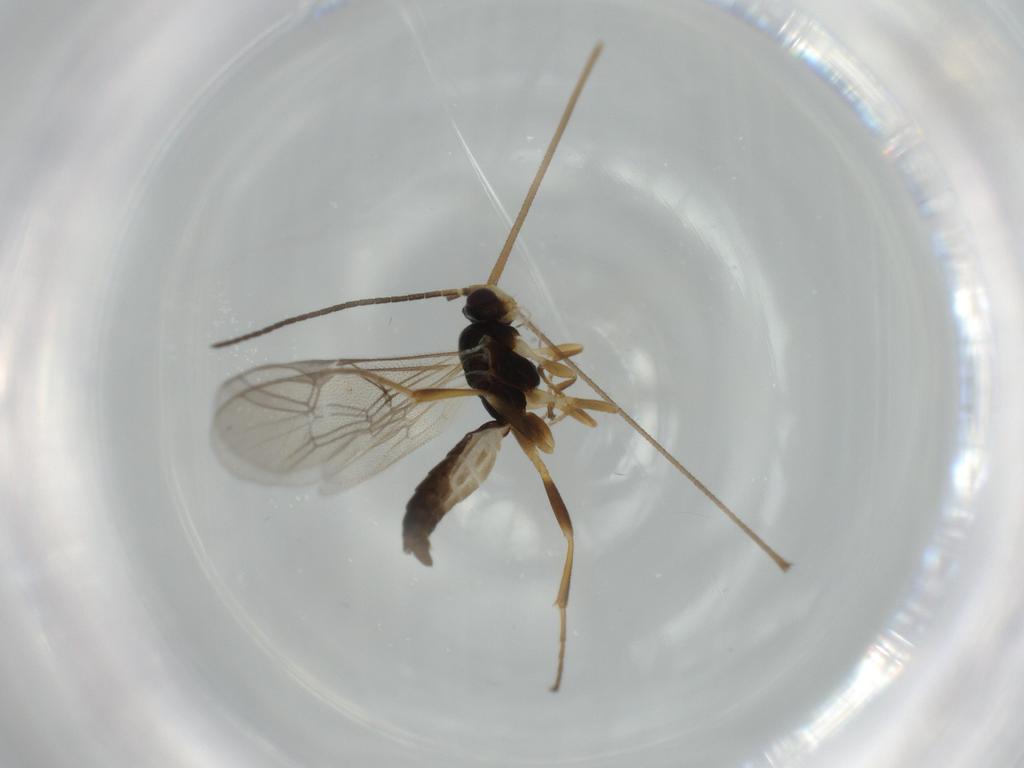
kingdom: Animalia
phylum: Arthropoda
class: Insecta
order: Hymenoptera
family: Ichneumonidae
